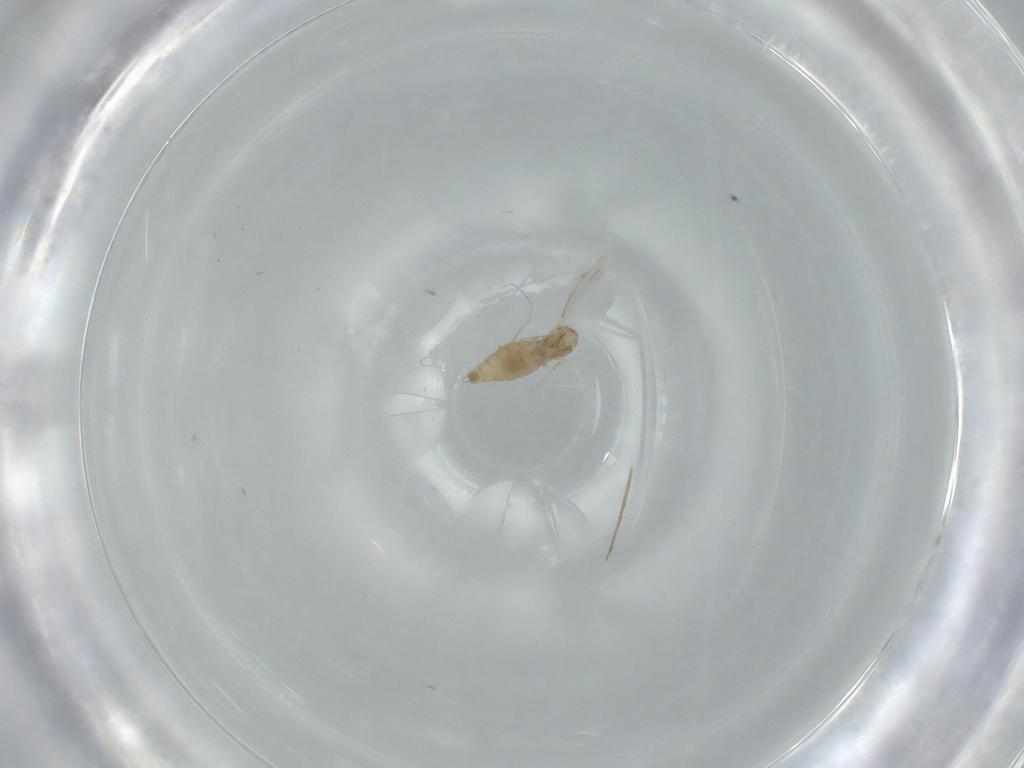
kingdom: Animalia
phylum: Arthropoda
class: Insecta
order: Diptera
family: Cecidomyiidae
